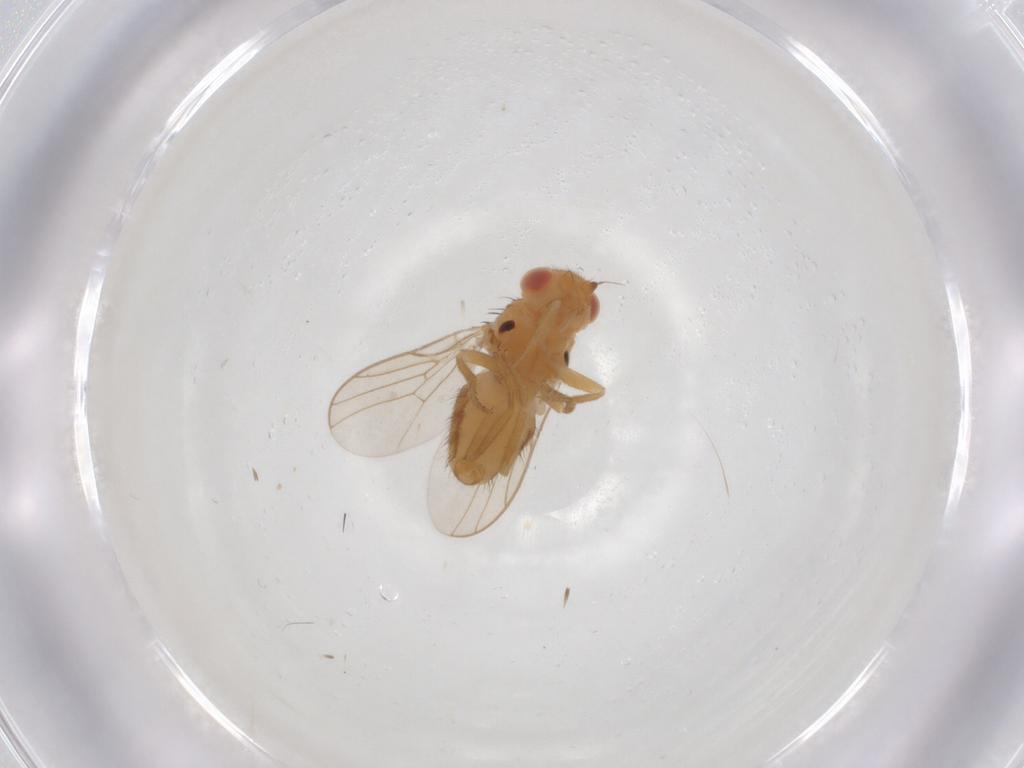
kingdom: Animalia
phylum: Arthropoda
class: Insecta
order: Diptera
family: Chloropidae
